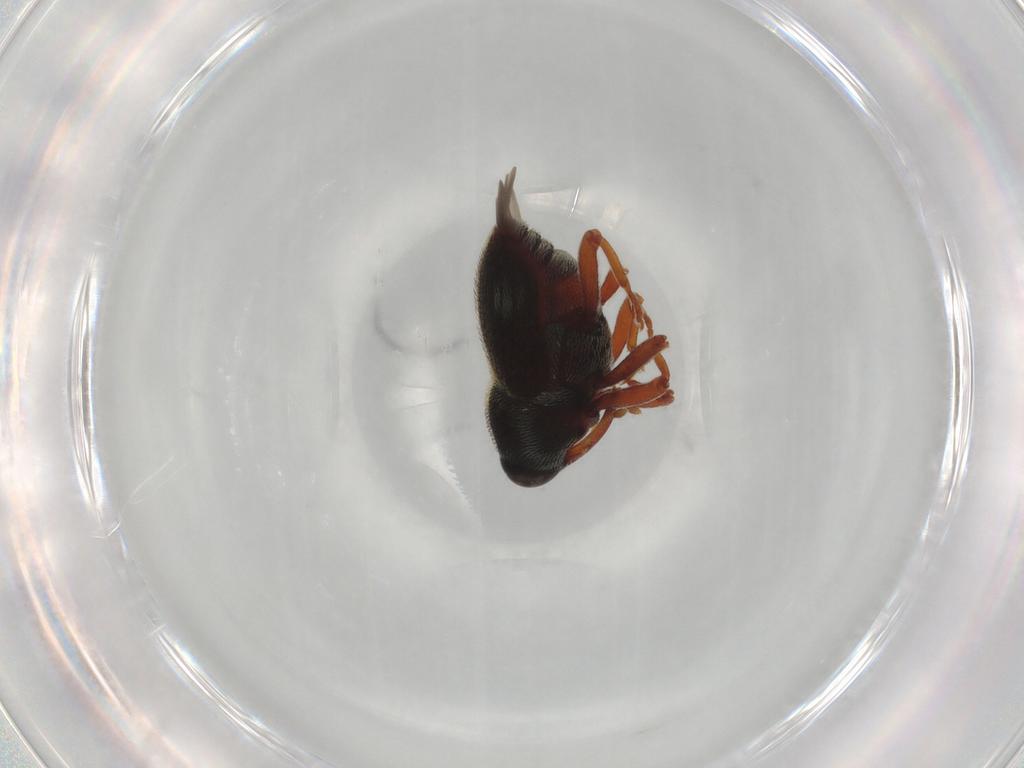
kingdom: Animalia
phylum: Arthropoda
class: Insecta
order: Coleoptera
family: Curculionidae
